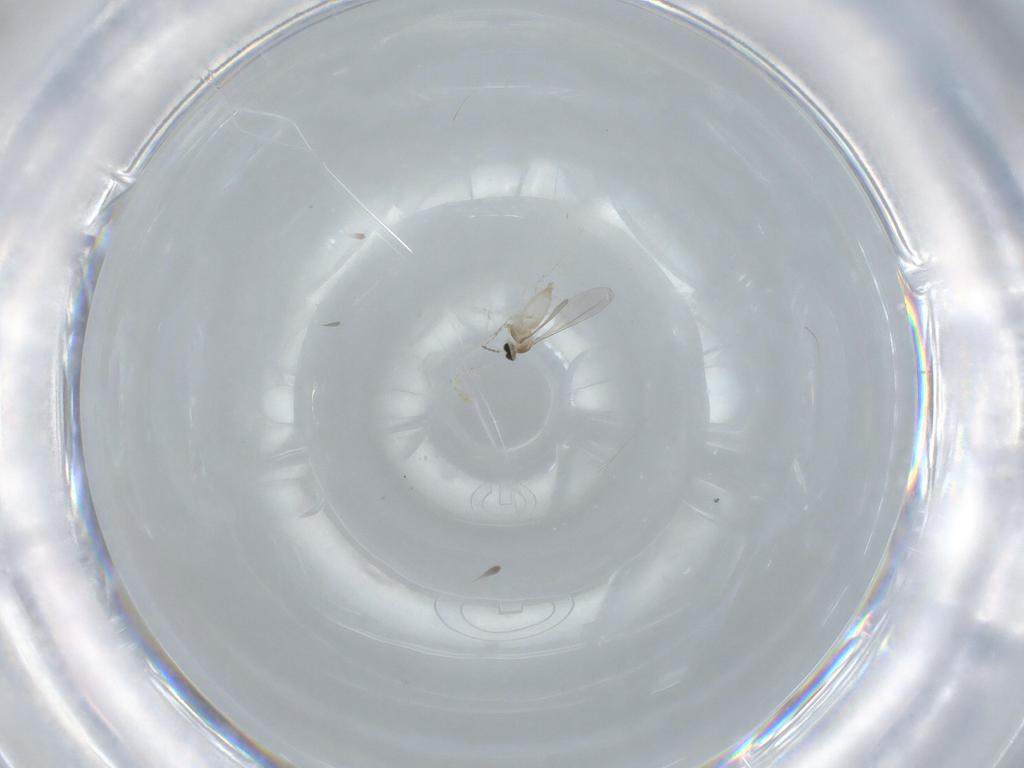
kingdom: Animalia
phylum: Arthropoda
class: Insecta
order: Diptera
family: Cecidomyiidae
